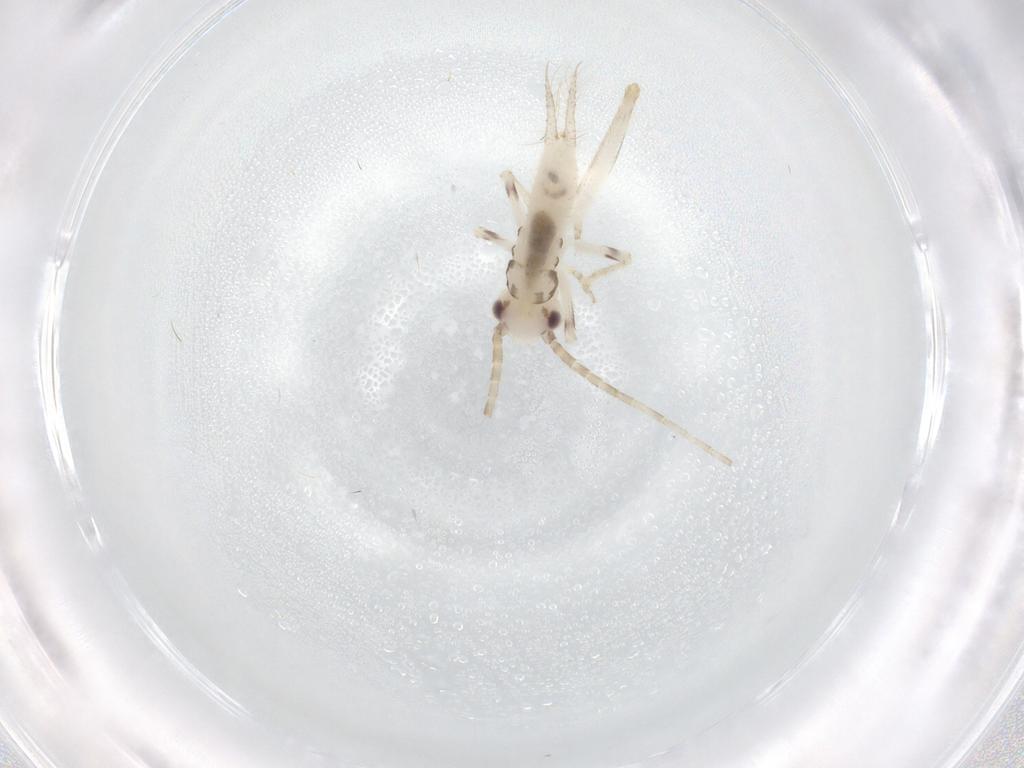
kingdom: Animalia
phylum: Arthropoda
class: Insecta
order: Orthoptera
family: Trigonidiidae
